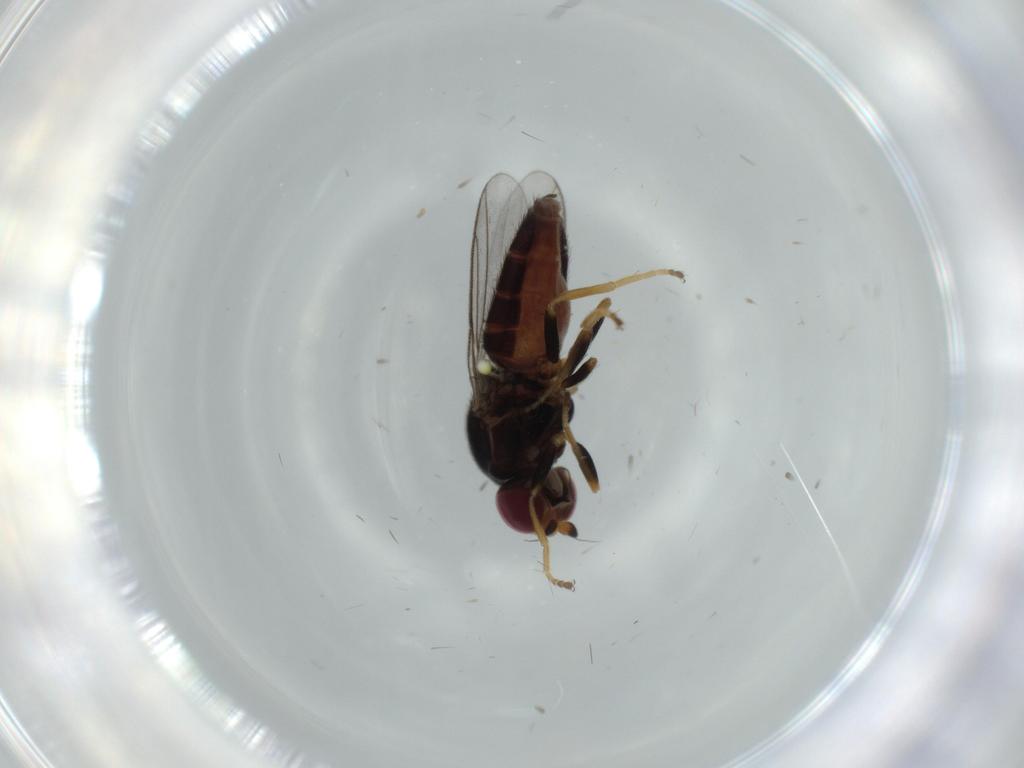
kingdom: Animalia
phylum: Arthropoda
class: Insecta
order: Diptera
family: Chloropidae
